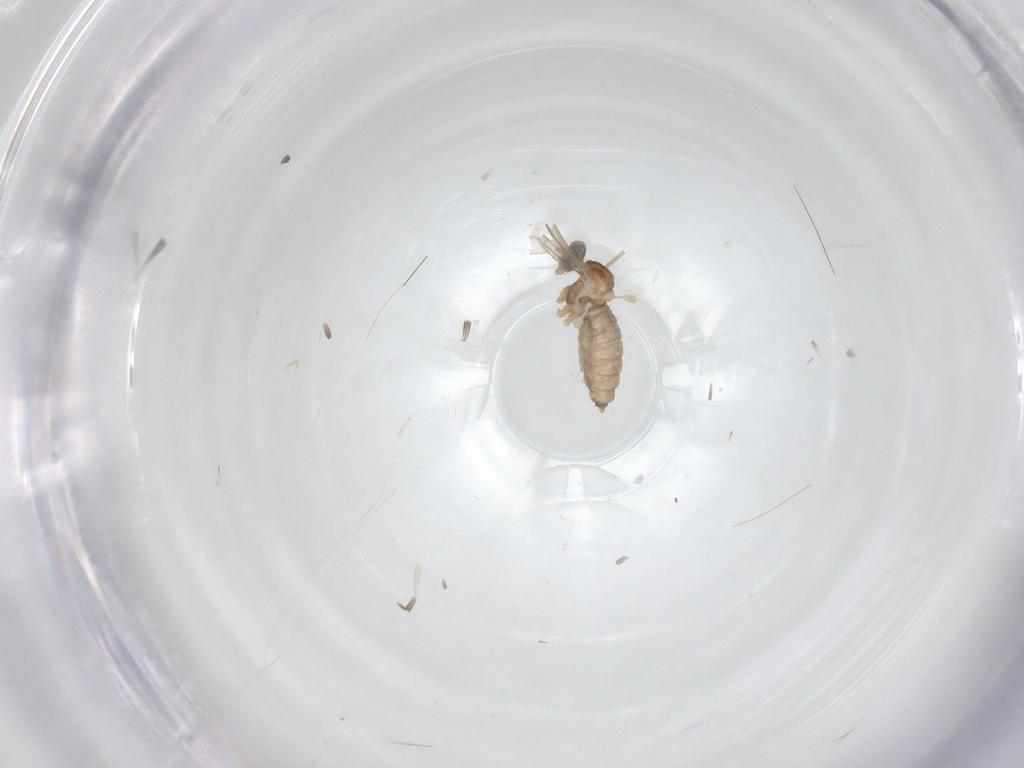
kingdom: Animalia
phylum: Arthropoda
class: Insecta
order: Diptera
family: Cecidomyiidae
